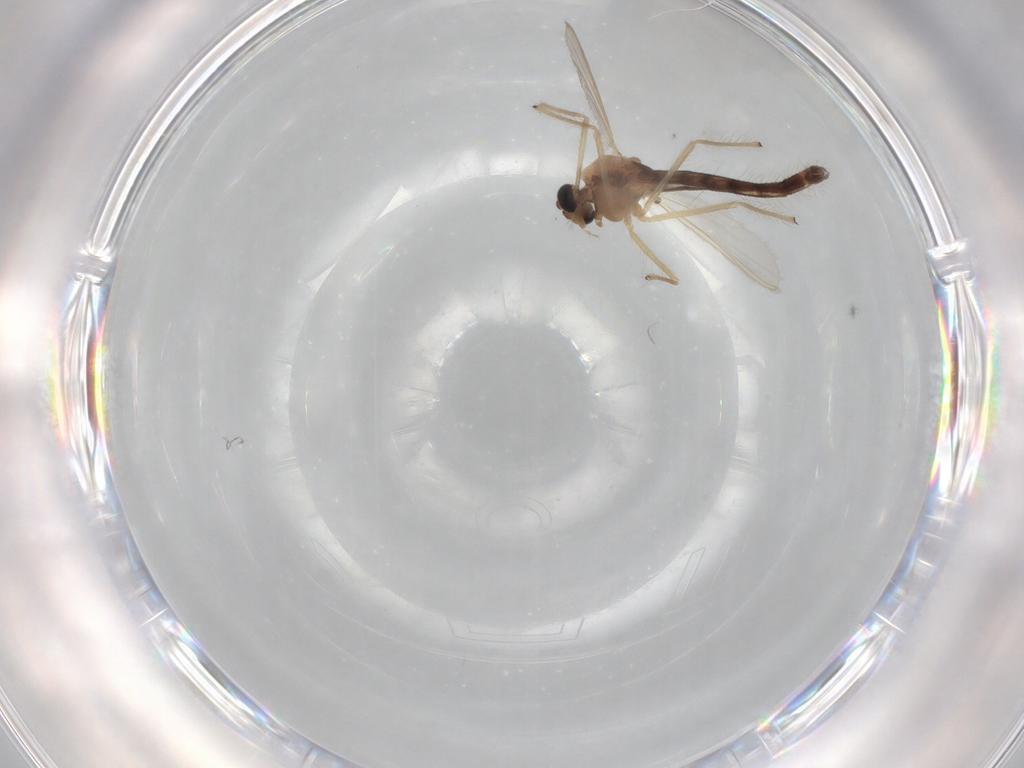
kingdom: Animalia
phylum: Arthropoda
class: Insecta
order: Diptera
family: Chironomidae
